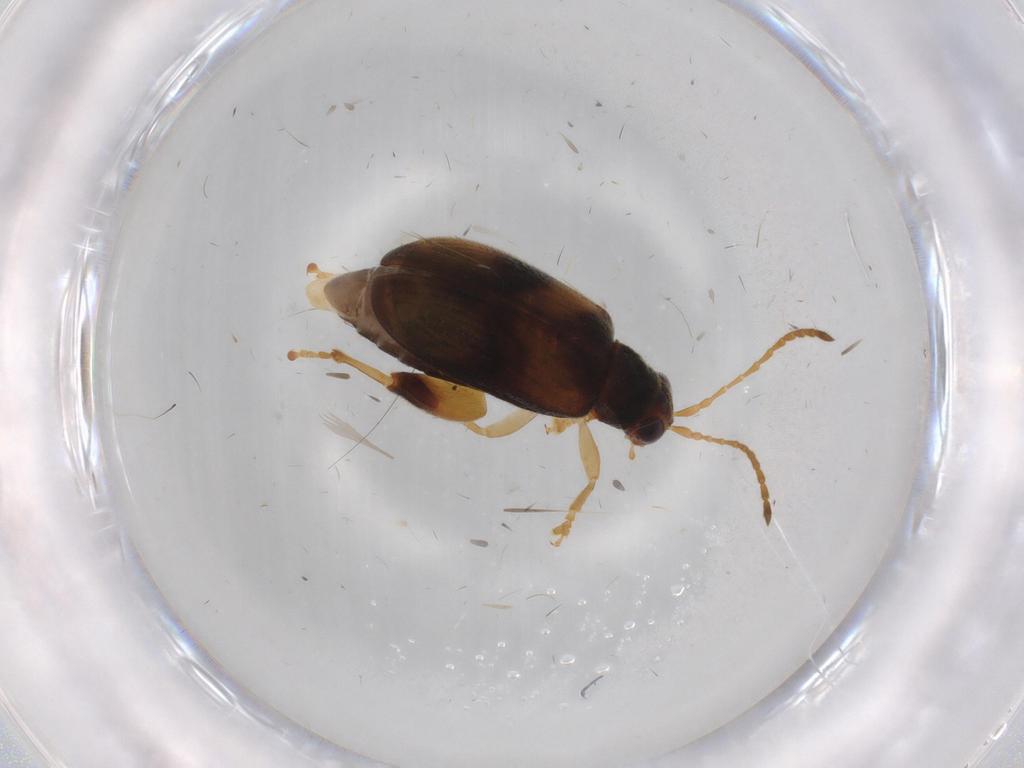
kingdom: Animalia
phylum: Arthropoda
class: Insecta
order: Coleoptera
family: Chrysomelidae
